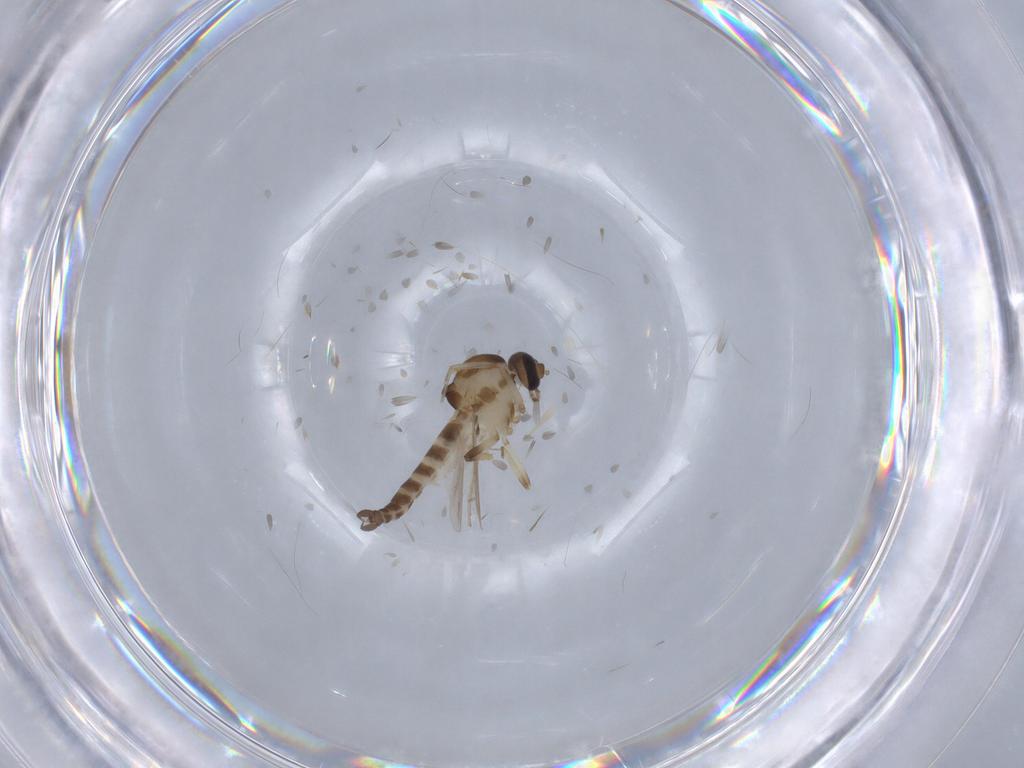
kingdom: Animalia
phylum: Arthropoda
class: Insecta
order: Diptera
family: Ceratopogonidae
